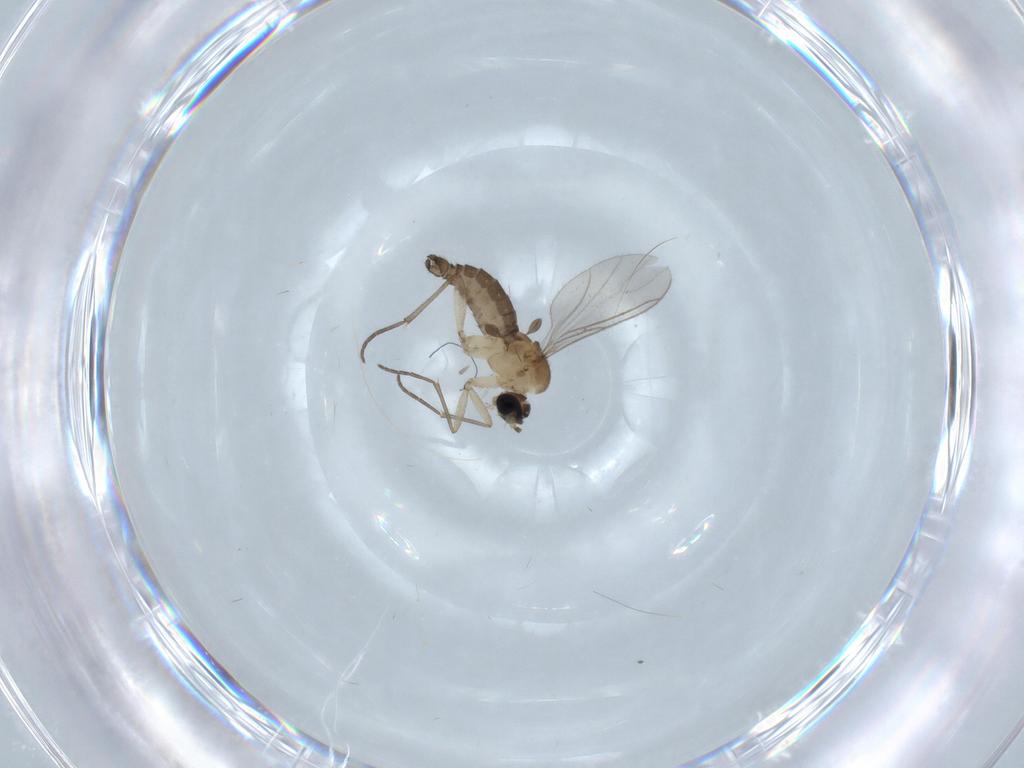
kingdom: Animalia
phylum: Arthropoda
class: Insecta
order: Diptera
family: Sciaridae
